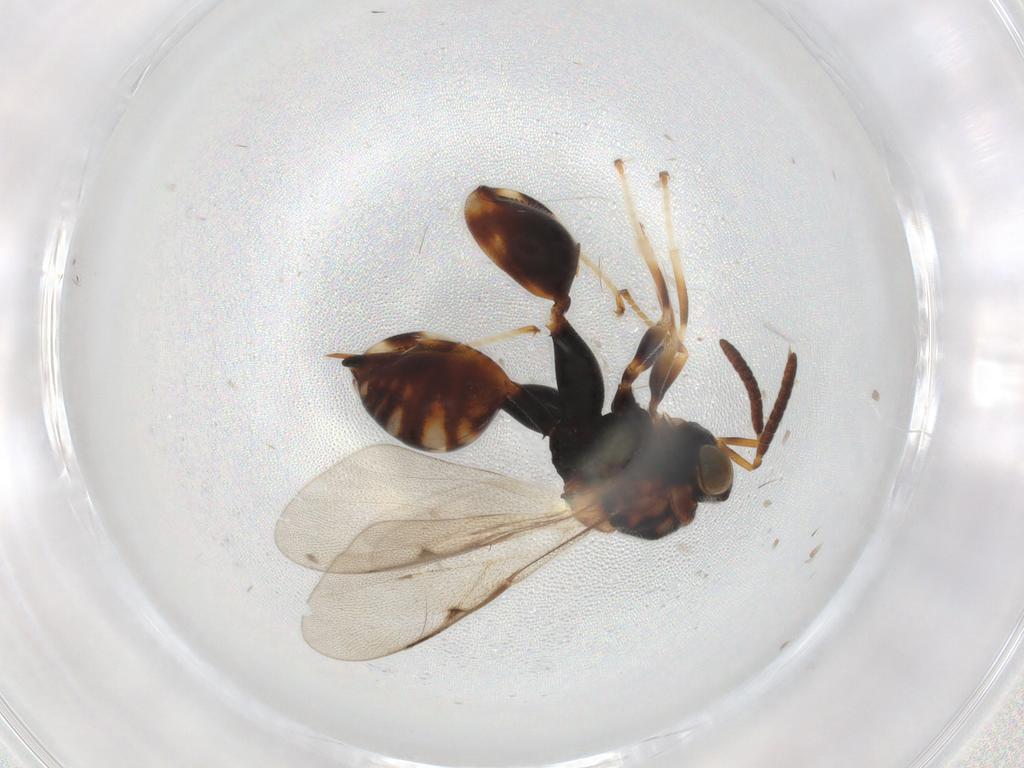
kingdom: Animalia
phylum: Arthropoda
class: Insecta
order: Hymenoptera
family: Chalcididae
